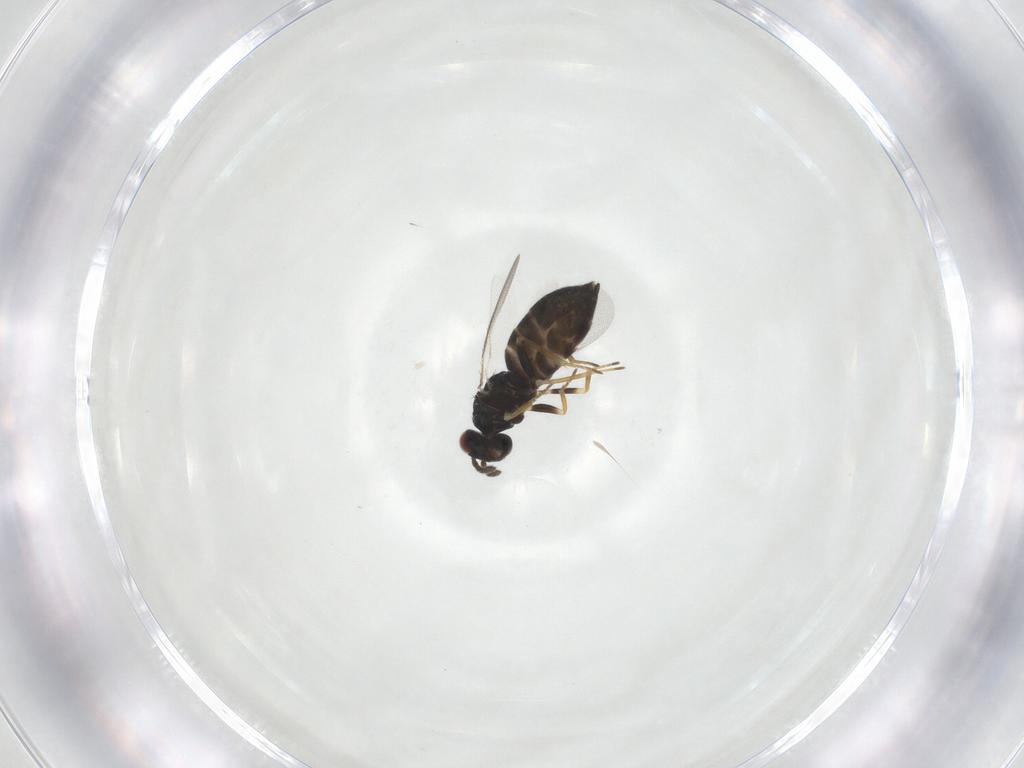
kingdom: Animalia
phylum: Arthropoda
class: Insecta
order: Hymenoptera
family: Eulophidae
